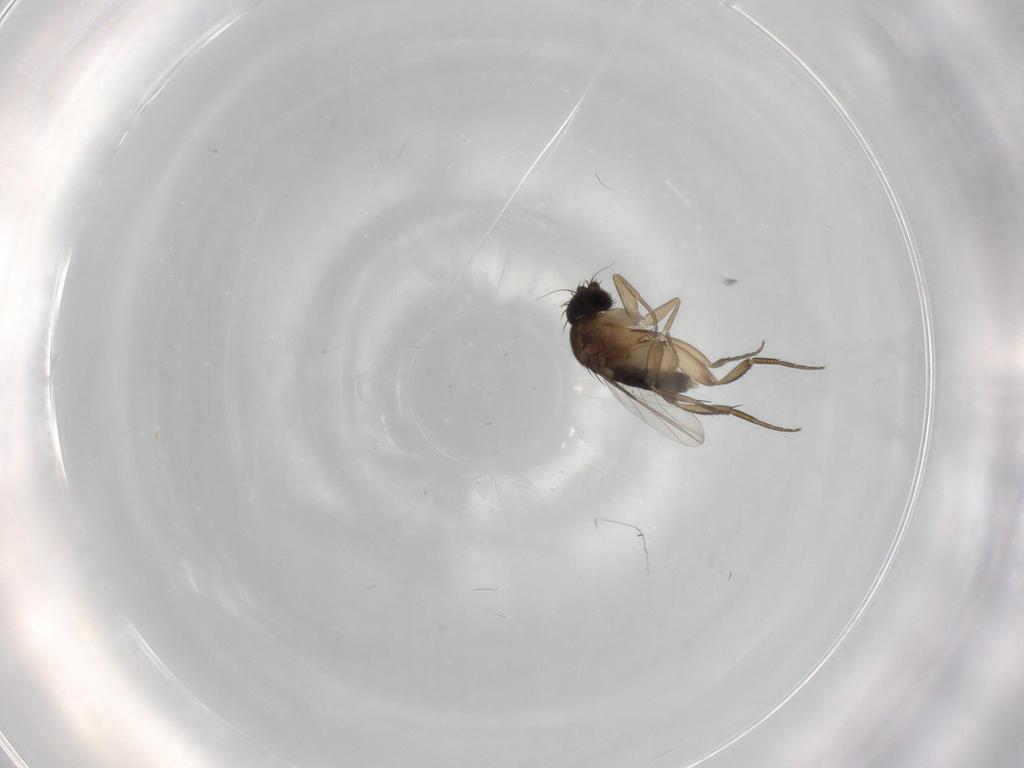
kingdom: Animalia
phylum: Arthropoda
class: Insecta
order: Diptera
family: Phoridae
